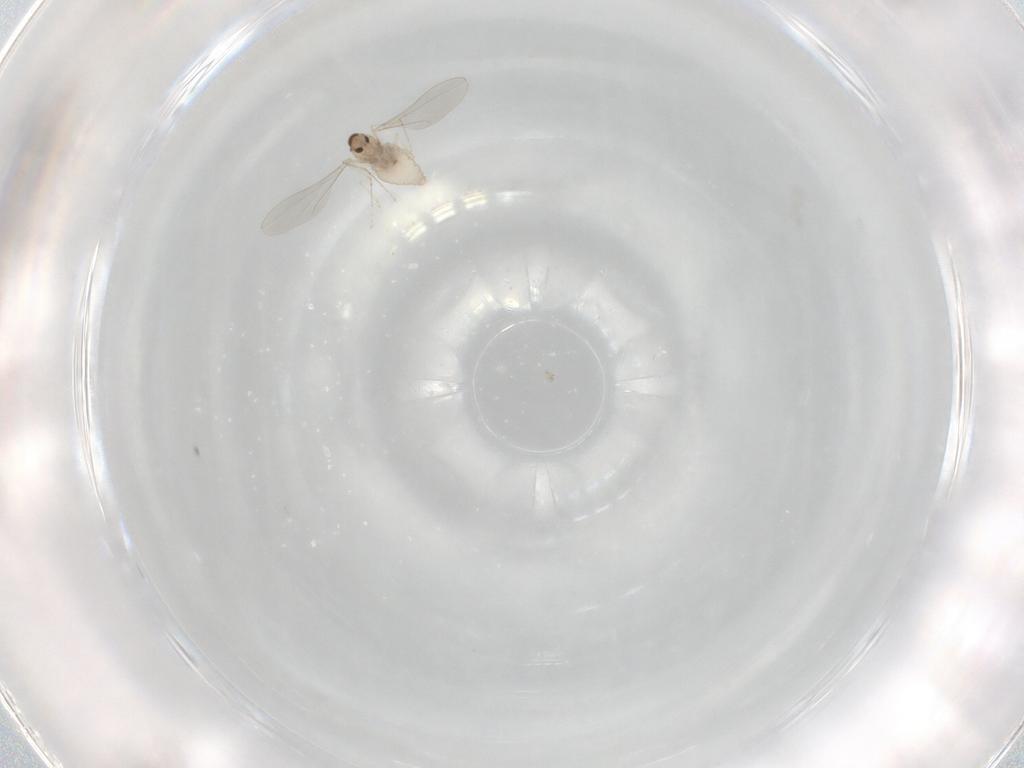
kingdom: Animalia
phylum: Arthropoda
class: Insecta
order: Diptera
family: Cecidomyiidae
